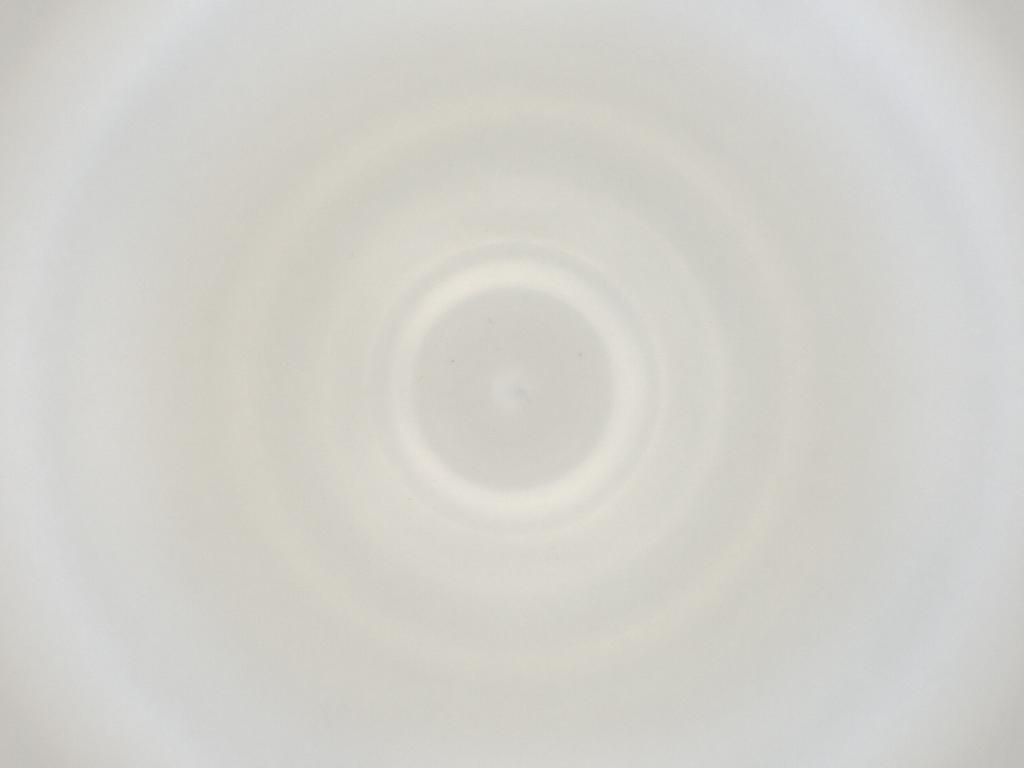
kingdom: Animalia
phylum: Arthropoda
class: Insecta
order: Diptera
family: Cecidomyiidae
